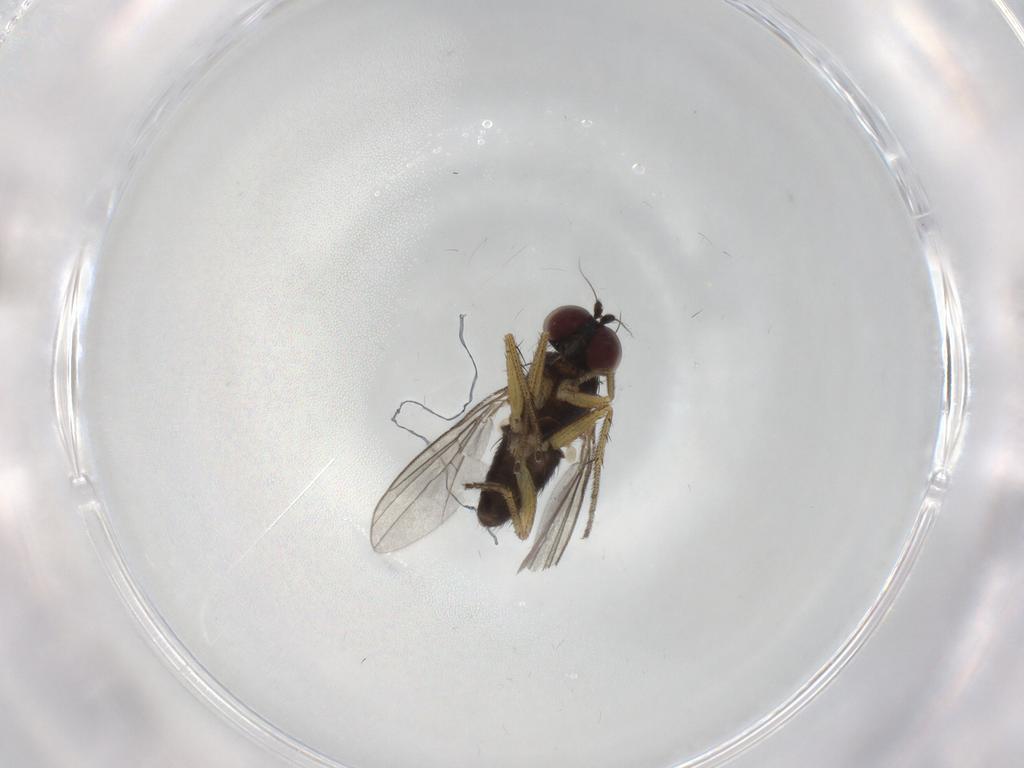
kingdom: Animalia
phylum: Arthropoda
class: Insecta
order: Diptera
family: Dolichopodidae
